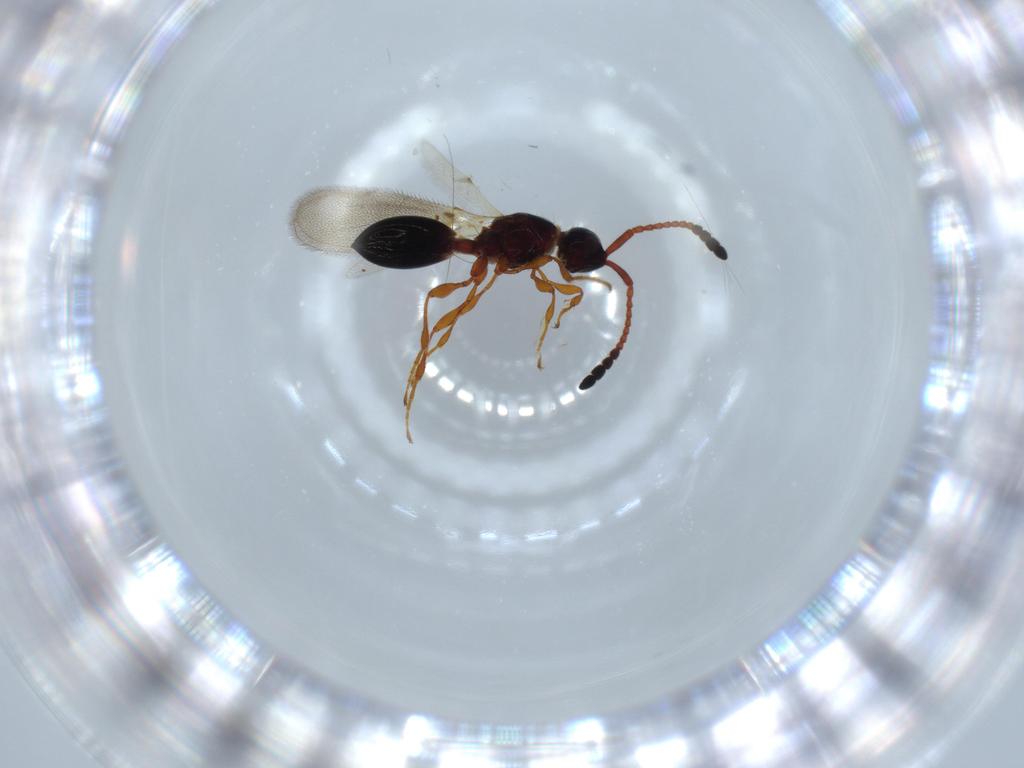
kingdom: Animalia
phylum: Arthropoda
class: Insecta
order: Hymenoptera
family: Diapriidae
